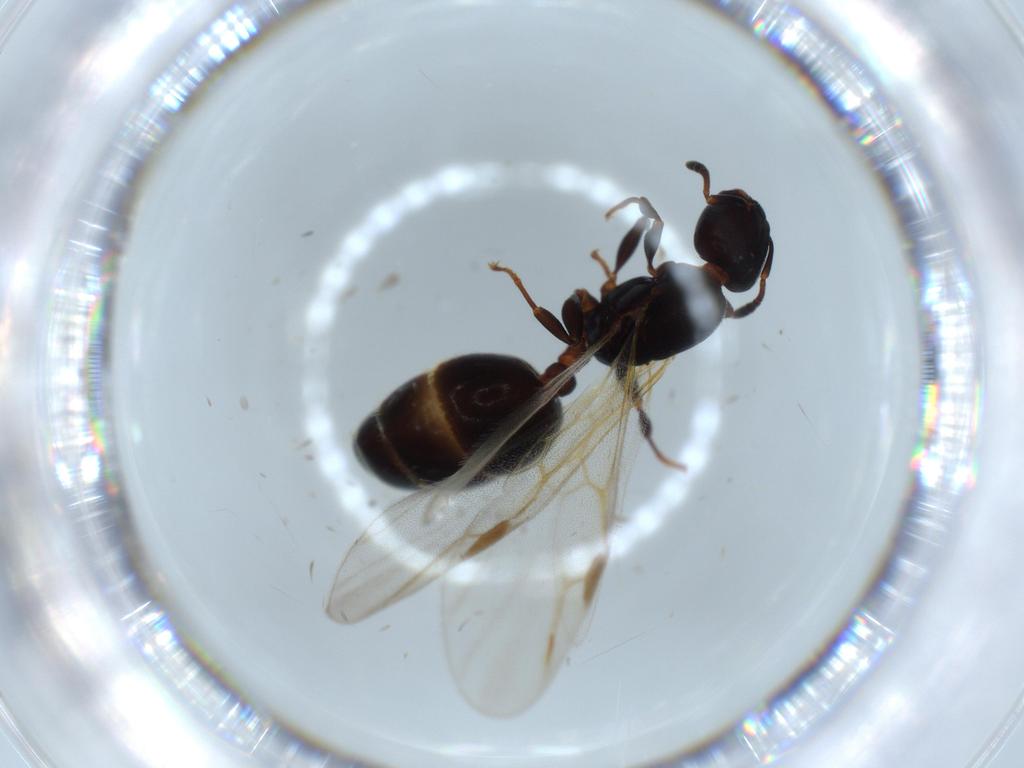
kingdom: Animalia
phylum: Arthropoda
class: Insecta
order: Hymenoptera
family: Formicidae
